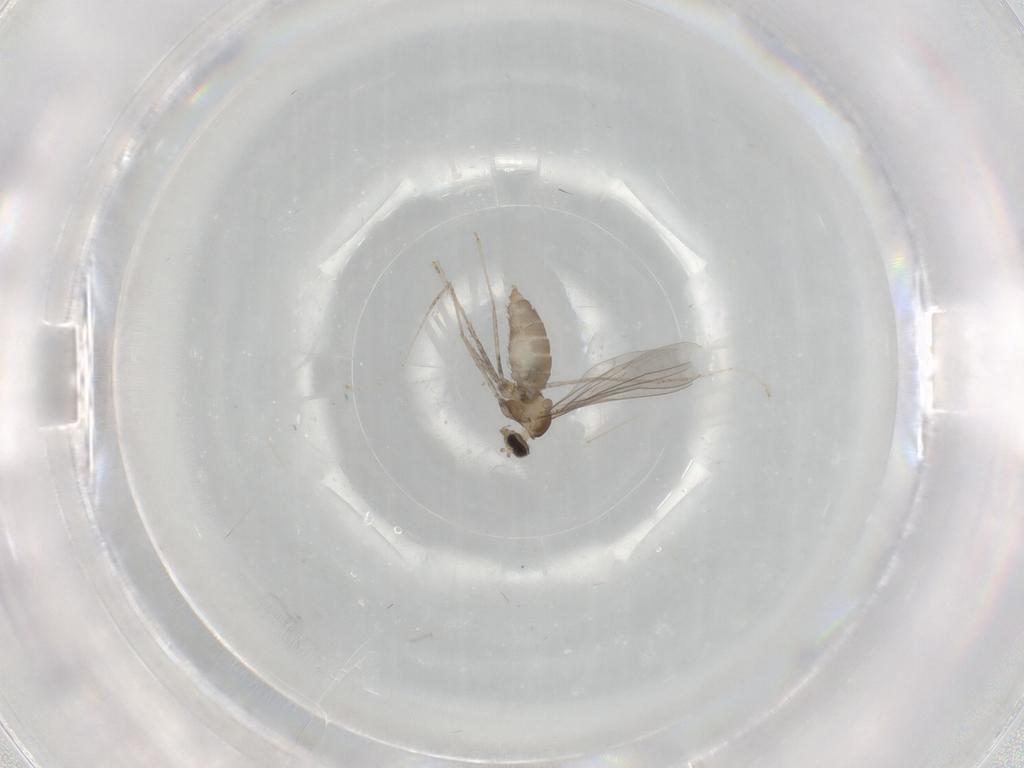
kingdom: Animalia
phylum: Arthropoda
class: Insecta
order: Diptera
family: Cecidomyiidae
